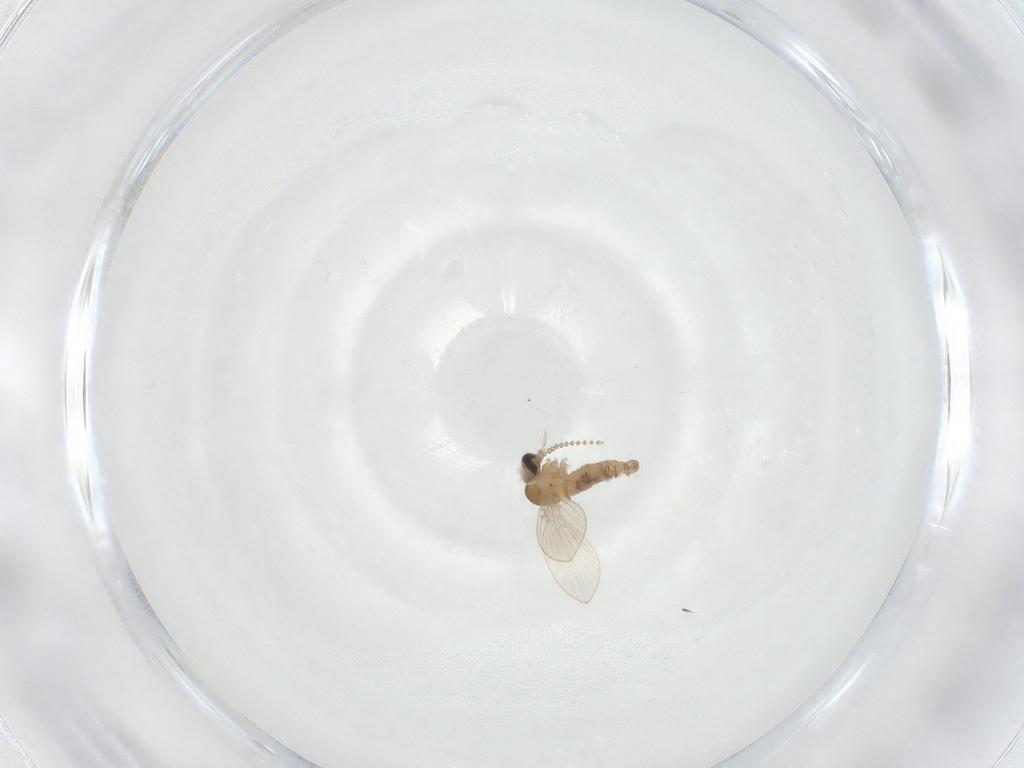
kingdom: Animalia
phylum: Arthropoda
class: Insecta
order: Diptera
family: Psychodidae
